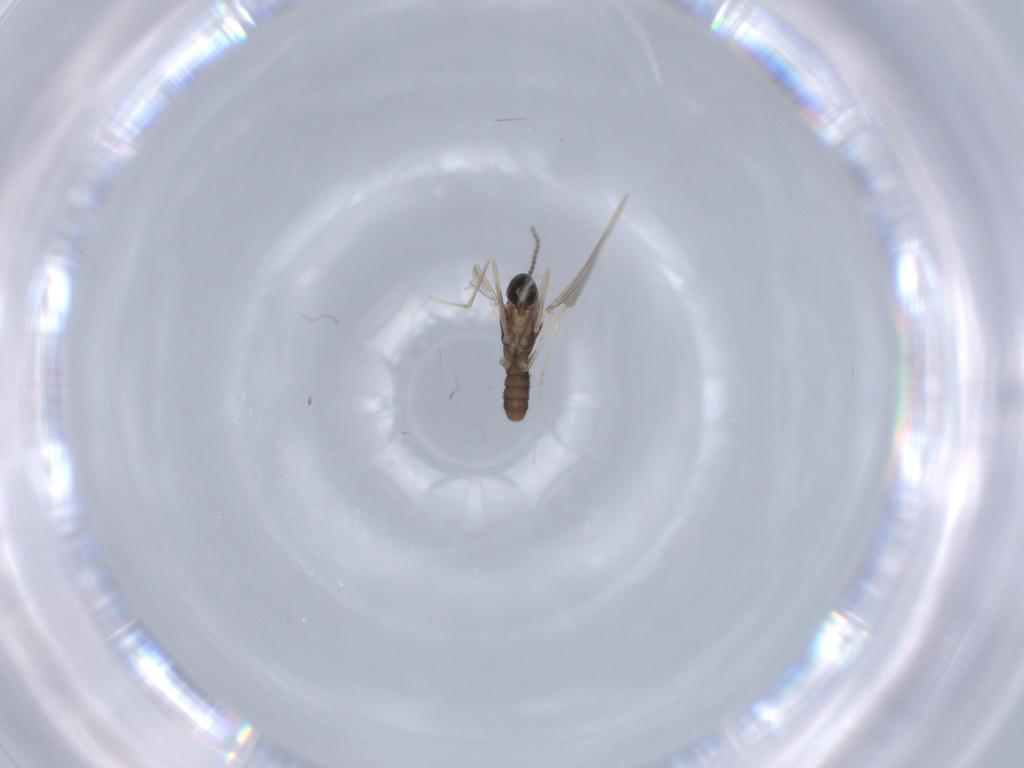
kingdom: Animalia
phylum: Arthropoda
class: Insecta
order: Diptera
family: Cecidomyiidae
